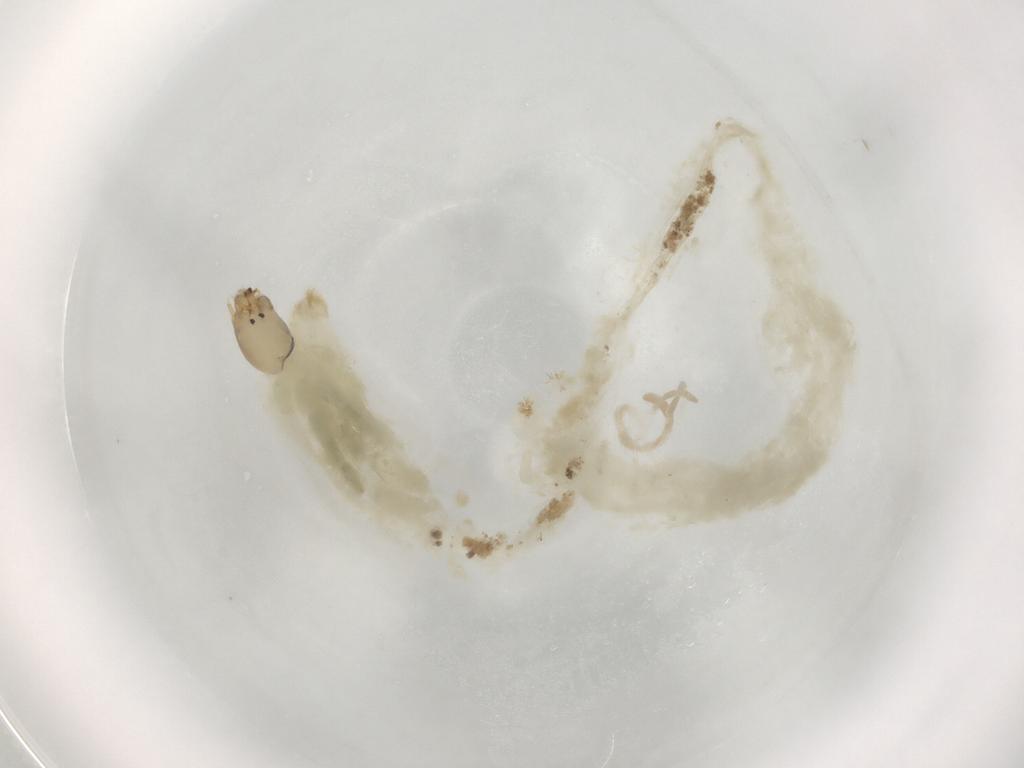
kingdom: Animalia
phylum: Arthropoda
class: Insecta
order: Diptera
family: Chironomidae
